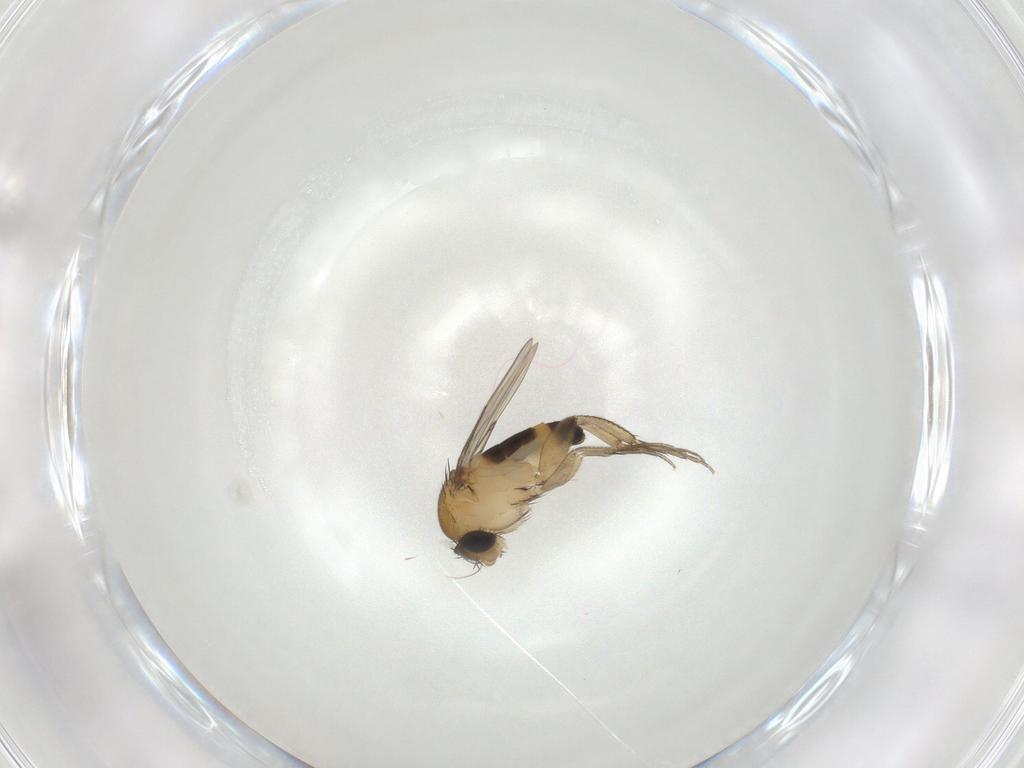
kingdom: Animalia
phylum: Arthropoda
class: Insecta
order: Diptera
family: Phoridae
